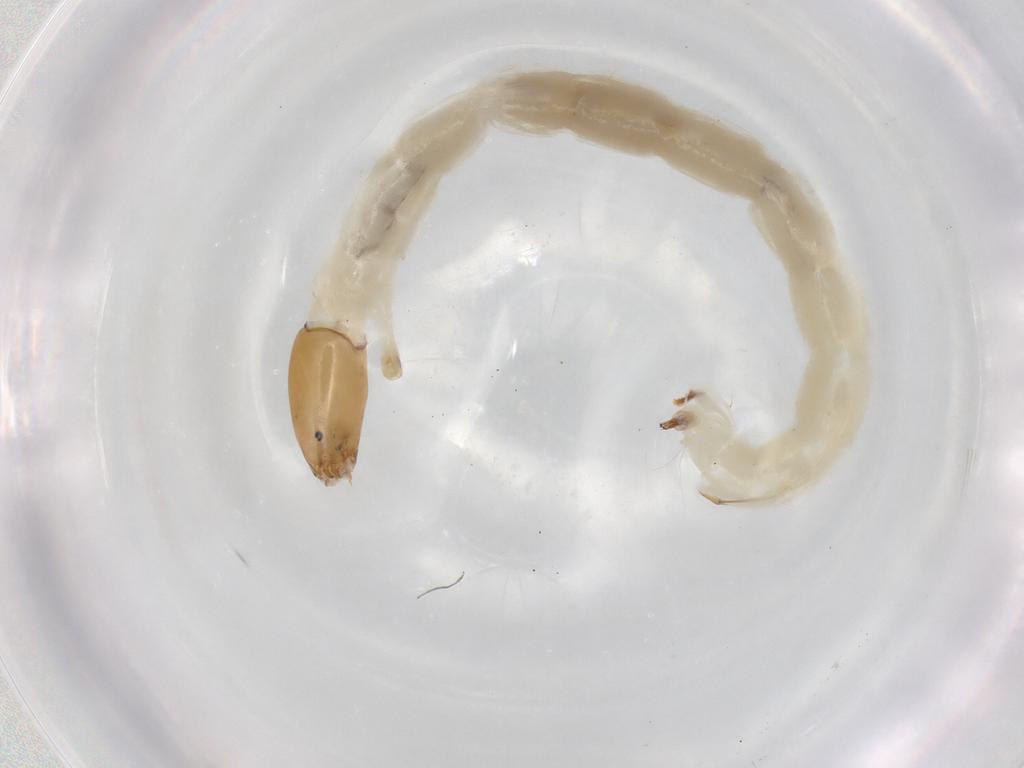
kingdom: Animalia
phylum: Arthropoda
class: Insecta
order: Diptera
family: Chironomidae
